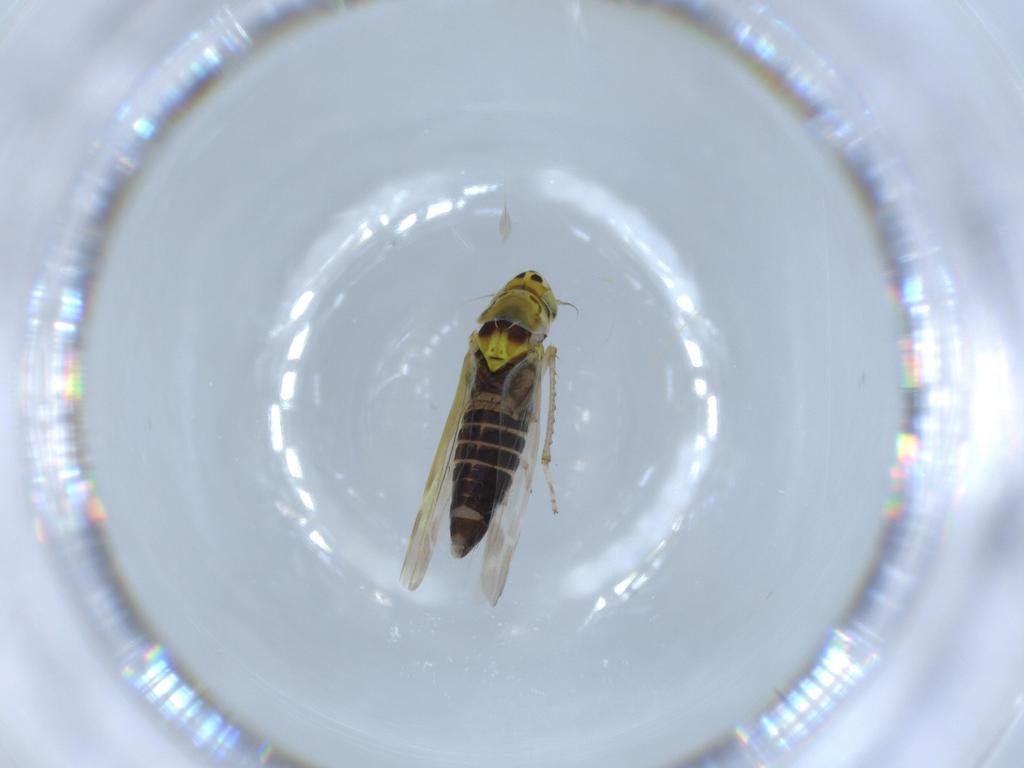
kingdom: Animalia
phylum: Arthropoda
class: Insecta
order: Hemiptera
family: Cicadellidae
